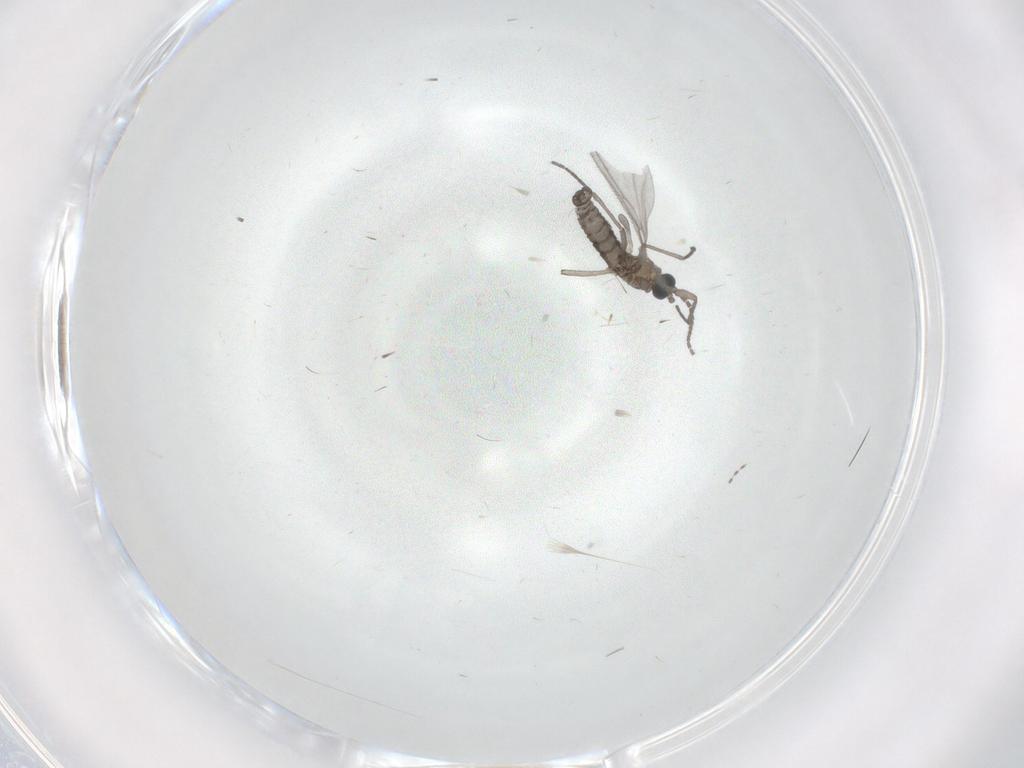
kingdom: Animalia
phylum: Arthropoda
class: Insecta
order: Diptera
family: Sciaridae
